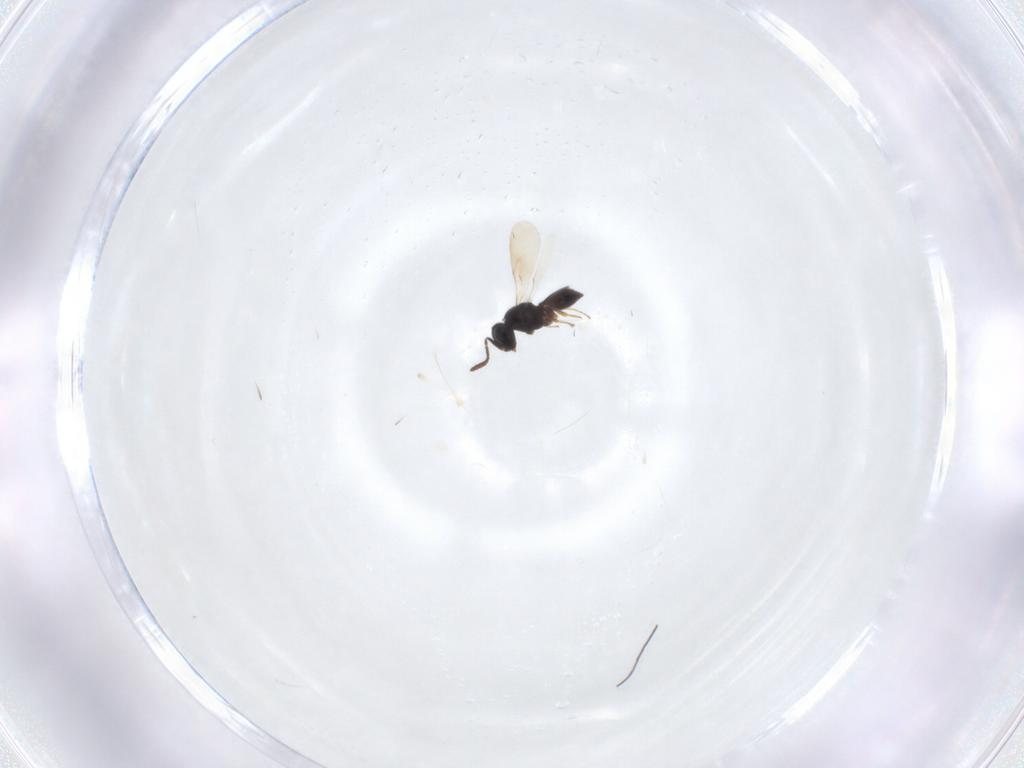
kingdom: Animalia
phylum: Arthropoda
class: Insecta
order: Hymenoptera
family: Scelionidae
